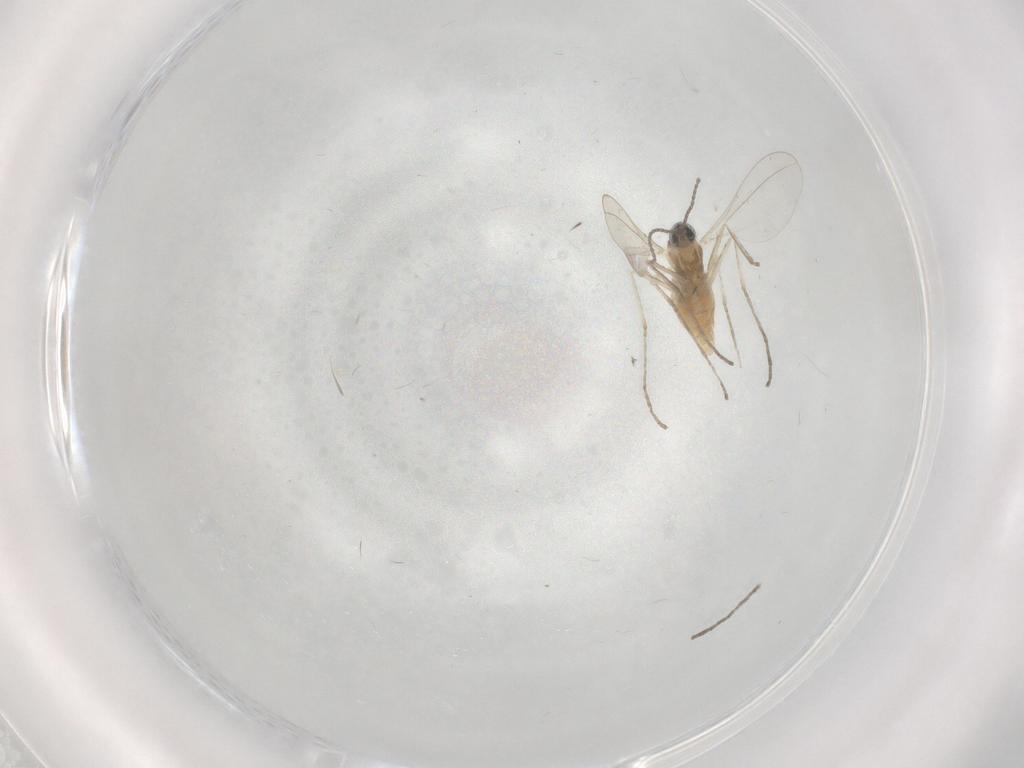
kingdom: Animalia
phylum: Arthropoda
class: Insecta
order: Diptera
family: Cecidomyiidae
